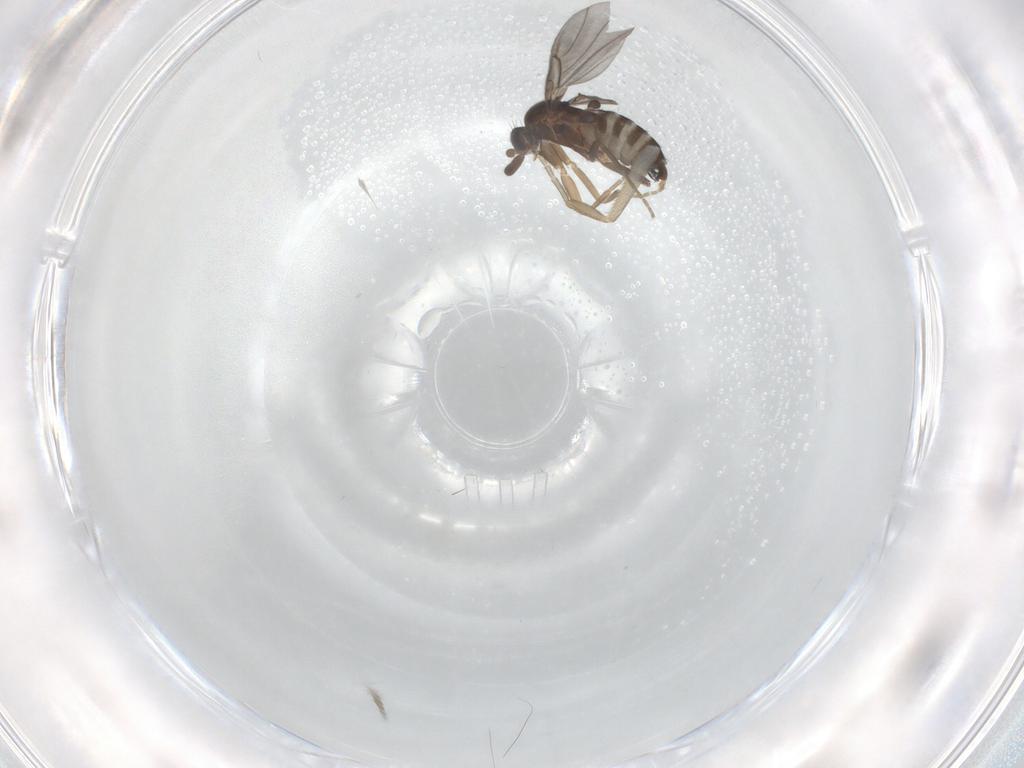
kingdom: Animalia
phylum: Arthropoda
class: Insecta
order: Diptera
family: Phoridae
